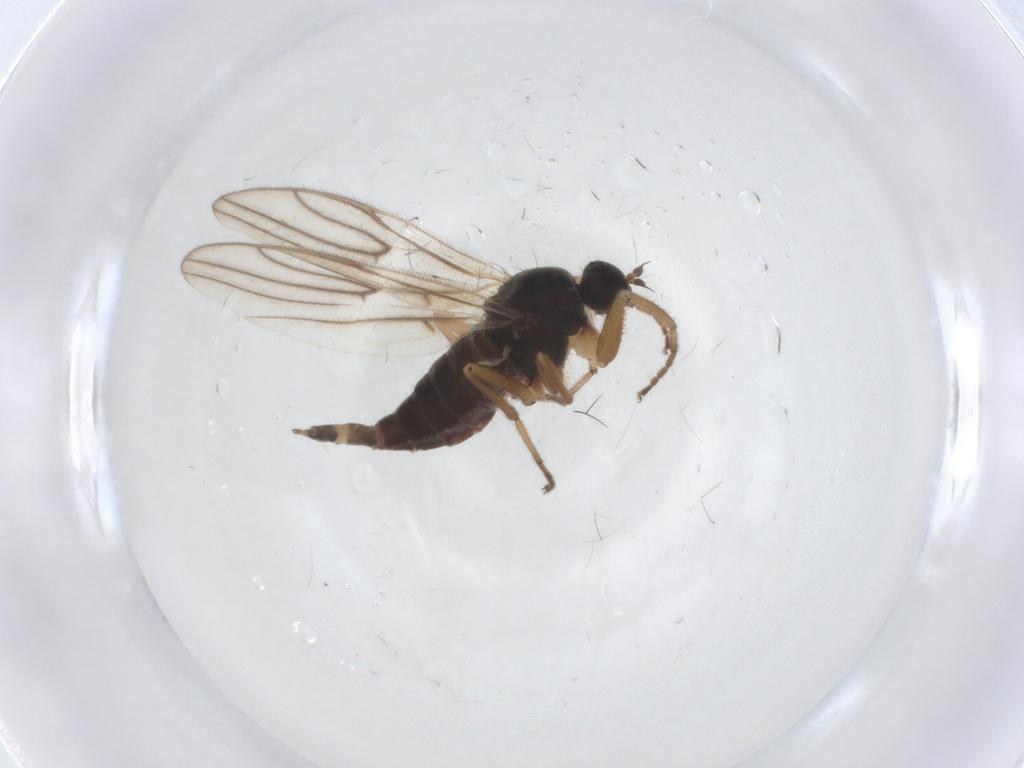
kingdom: Animalia
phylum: Arthropoda
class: Insecta
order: Diptera
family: Hybotidae
